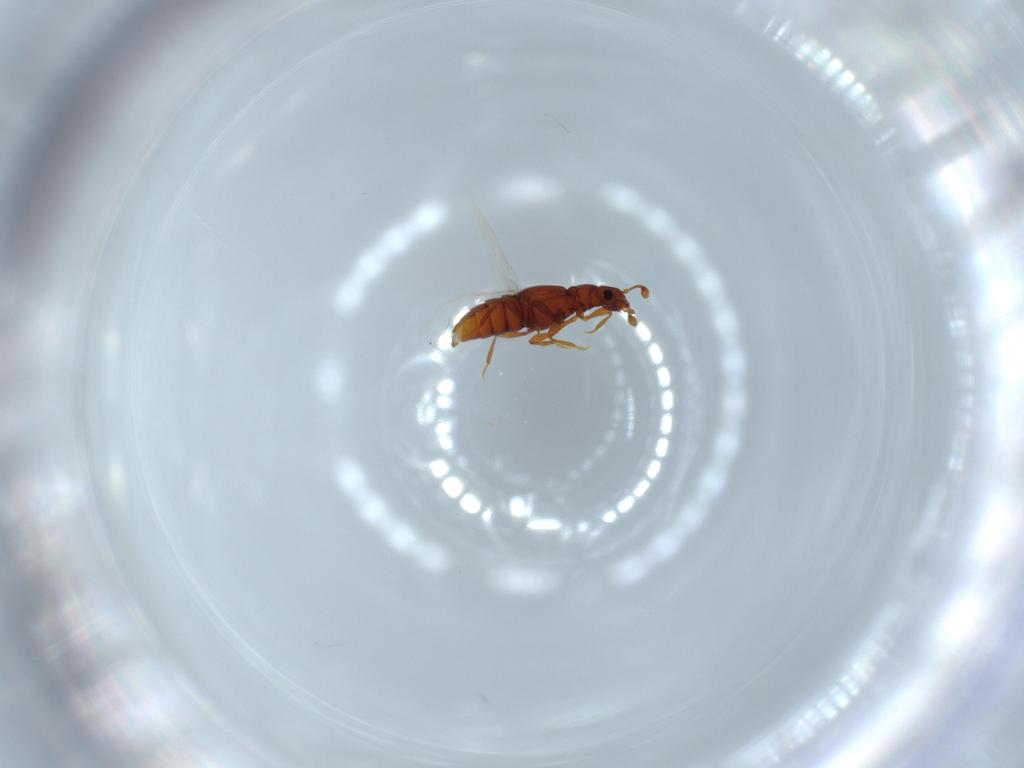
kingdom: Animalia
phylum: Arthropoda
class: Insecta
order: Coleoptera
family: Staphylinidae
